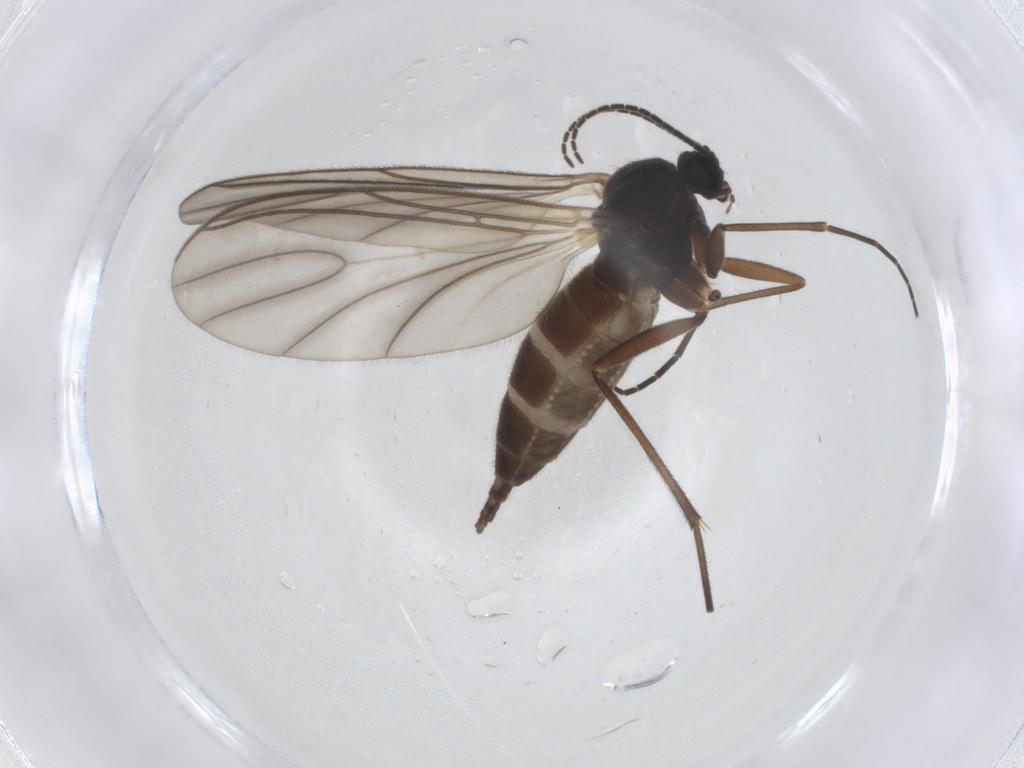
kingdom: Animalia
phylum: Arthropoda
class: Insecta
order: Diptera
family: Sciaridae
